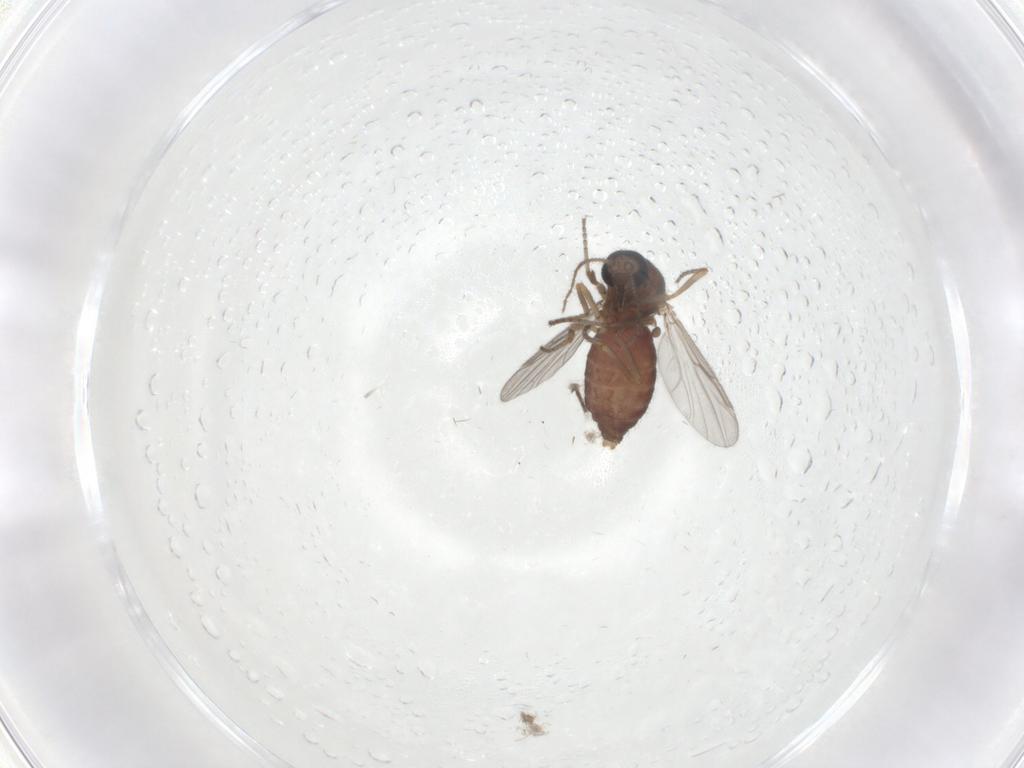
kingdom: Animalia
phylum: Arthropoda
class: Insecta
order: Diptera
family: Ceratopogonidae
